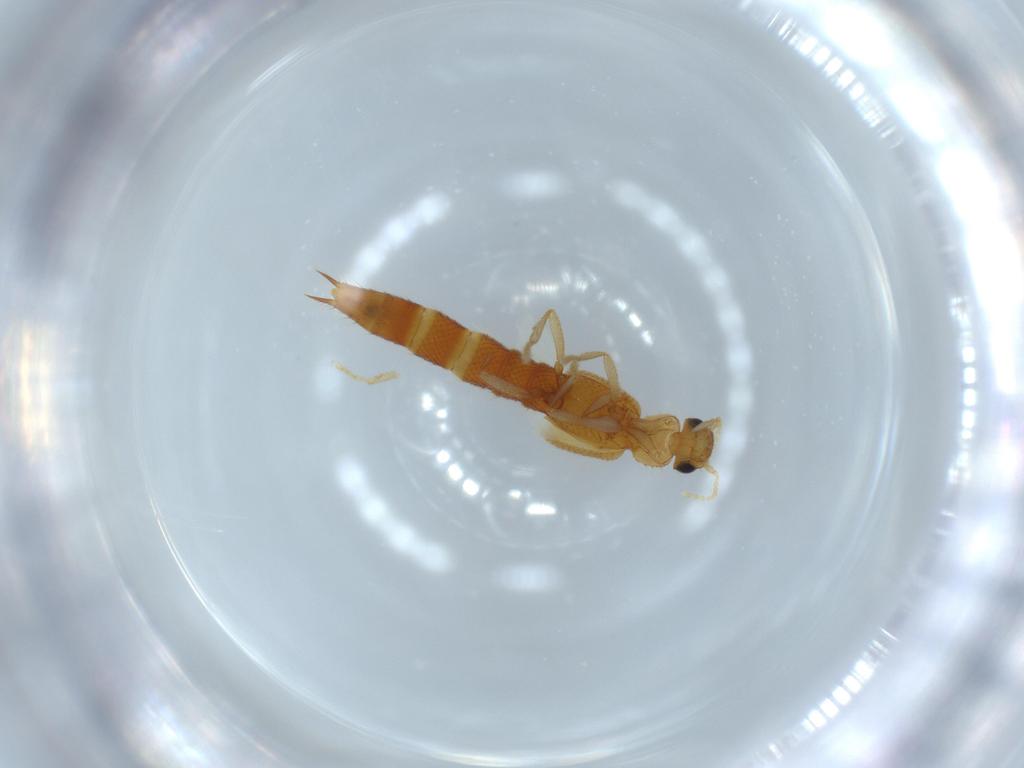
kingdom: Animalia
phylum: Arthropoda
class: Insecta
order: Coleoptera
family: Staphylinidae
